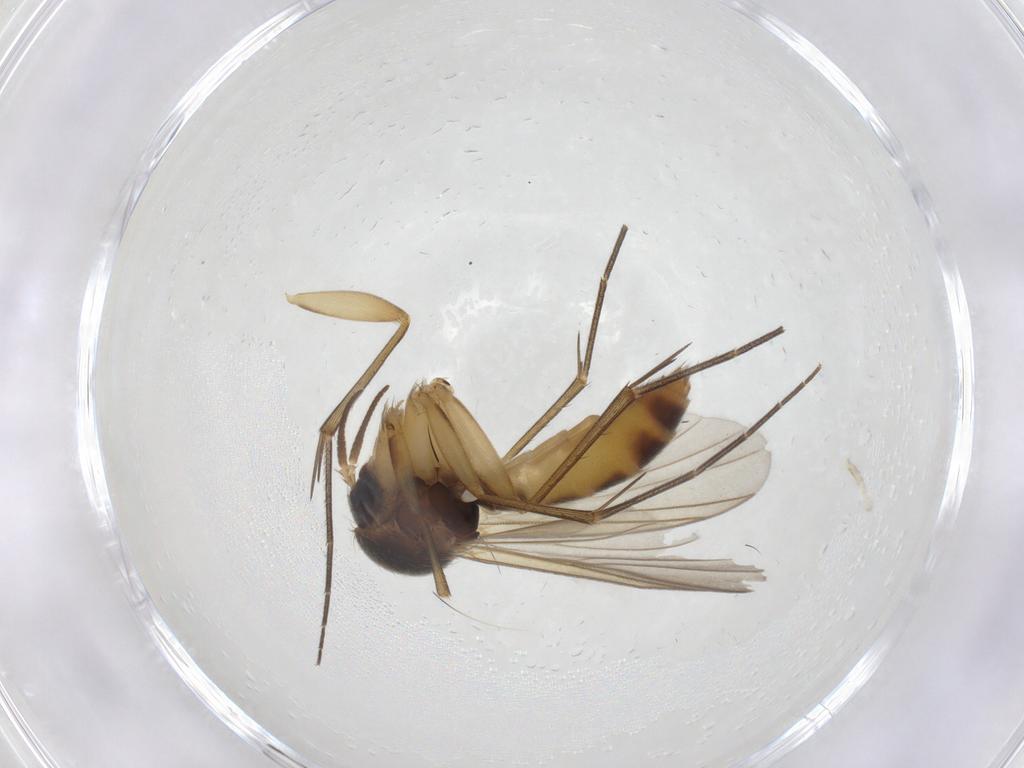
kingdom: Animalia
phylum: Arthropoda
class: Insecta
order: Diptera
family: Mycetophilidae
